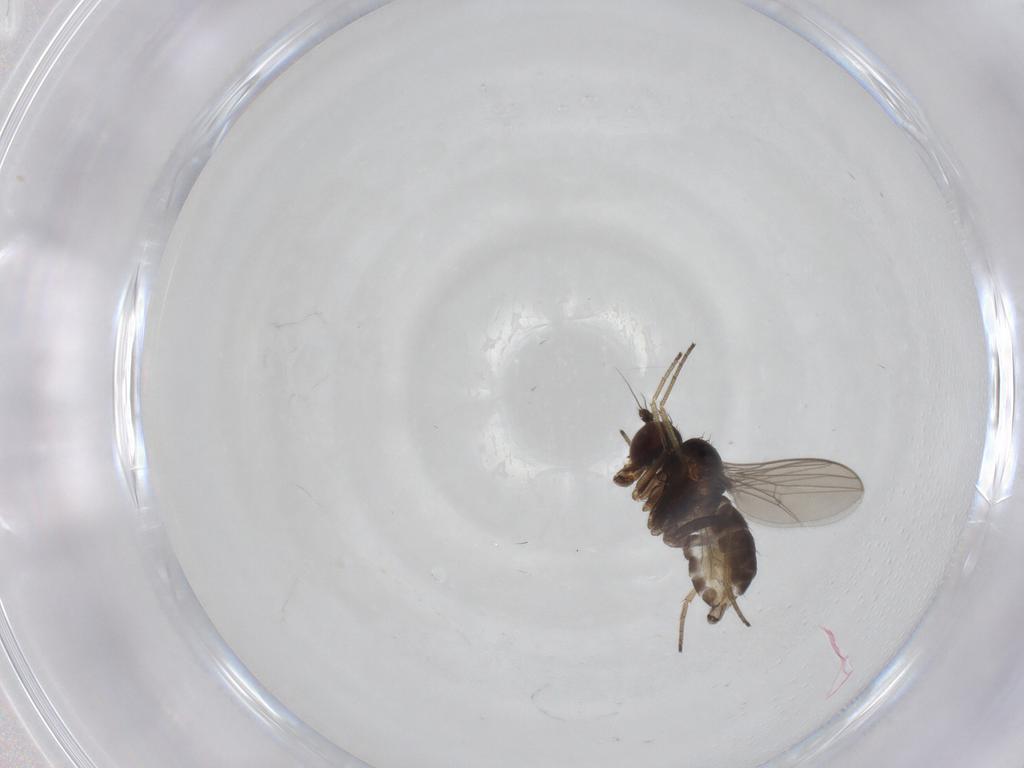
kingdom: Animalia
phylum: Arthropoda
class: Insecta
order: Diptera
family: Dolichopodidae
